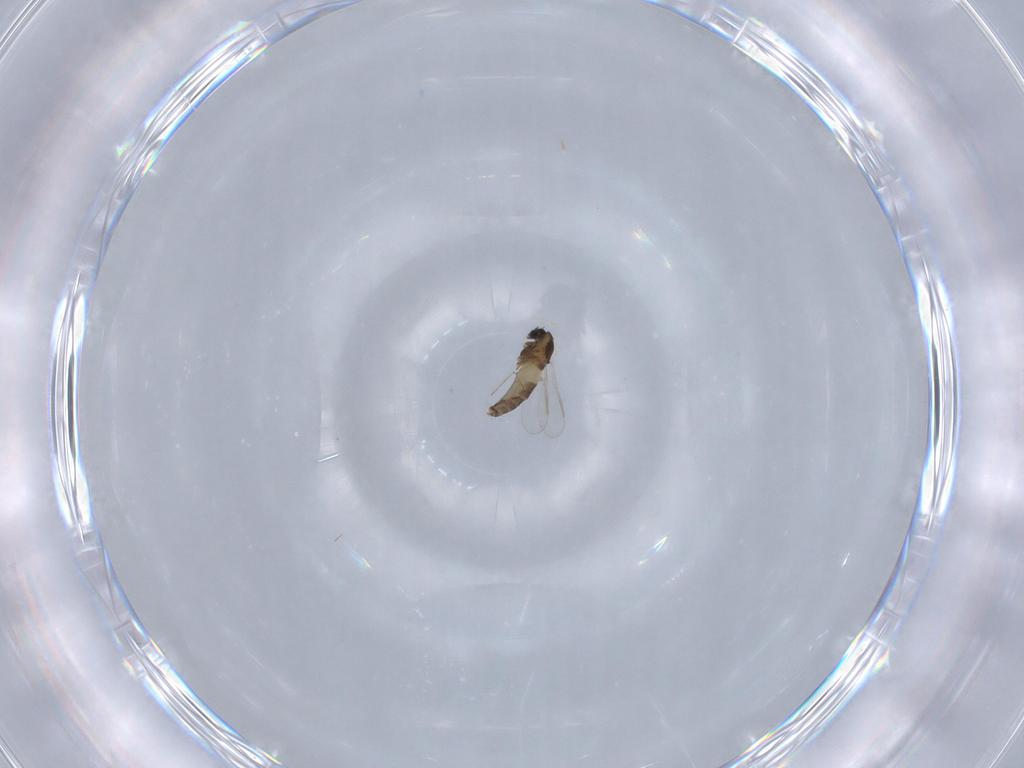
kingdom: Animalia
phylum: Arthropoda
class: Insecta
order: Diptera
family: Chironomidae
